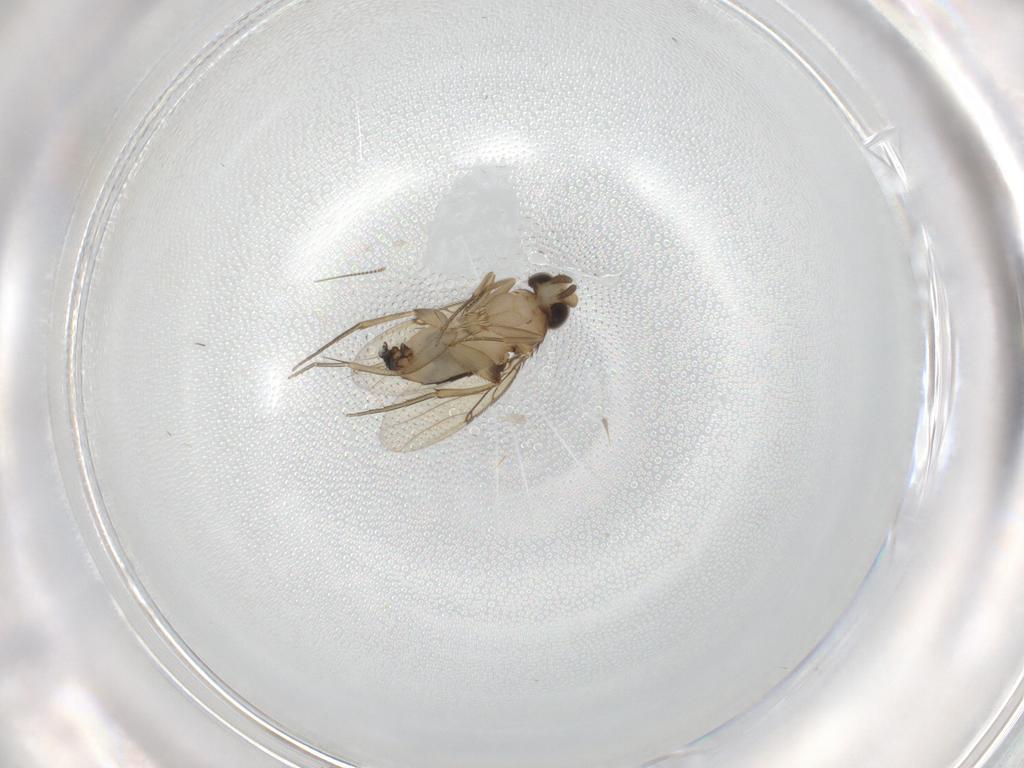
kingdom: Animalia
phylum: Arthropoda
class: Insecta
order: Diptera
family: Phoridae
